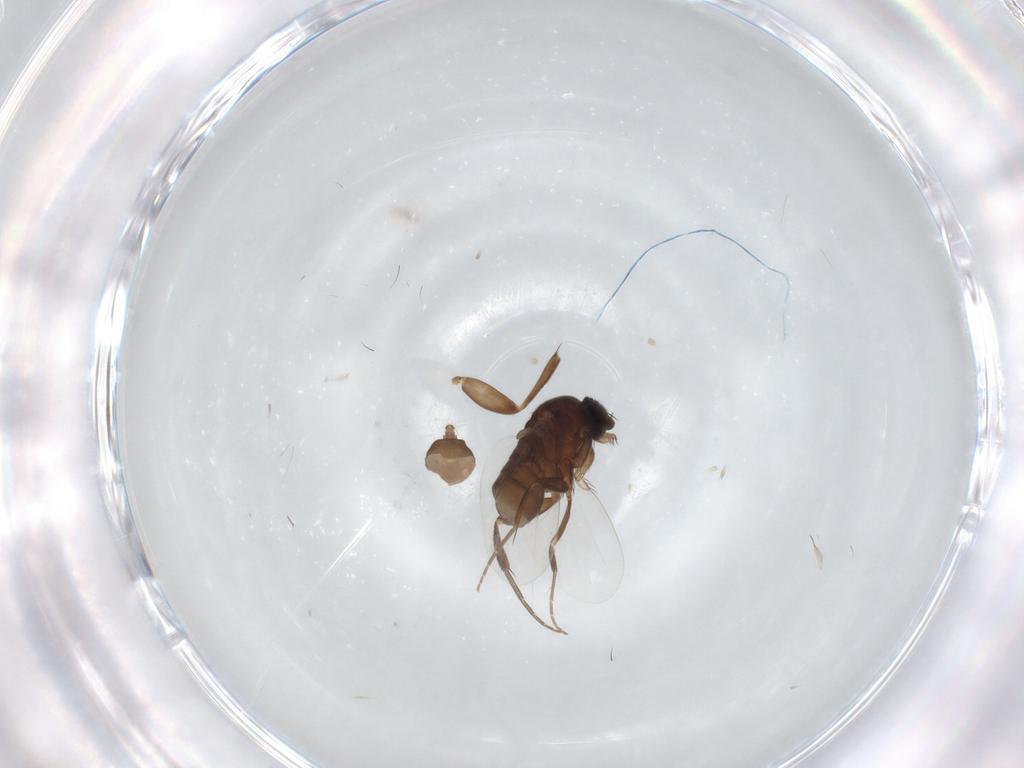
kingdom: Animalia
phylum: Arthropoda
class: Insecta
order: Diptera
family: Phoridae
